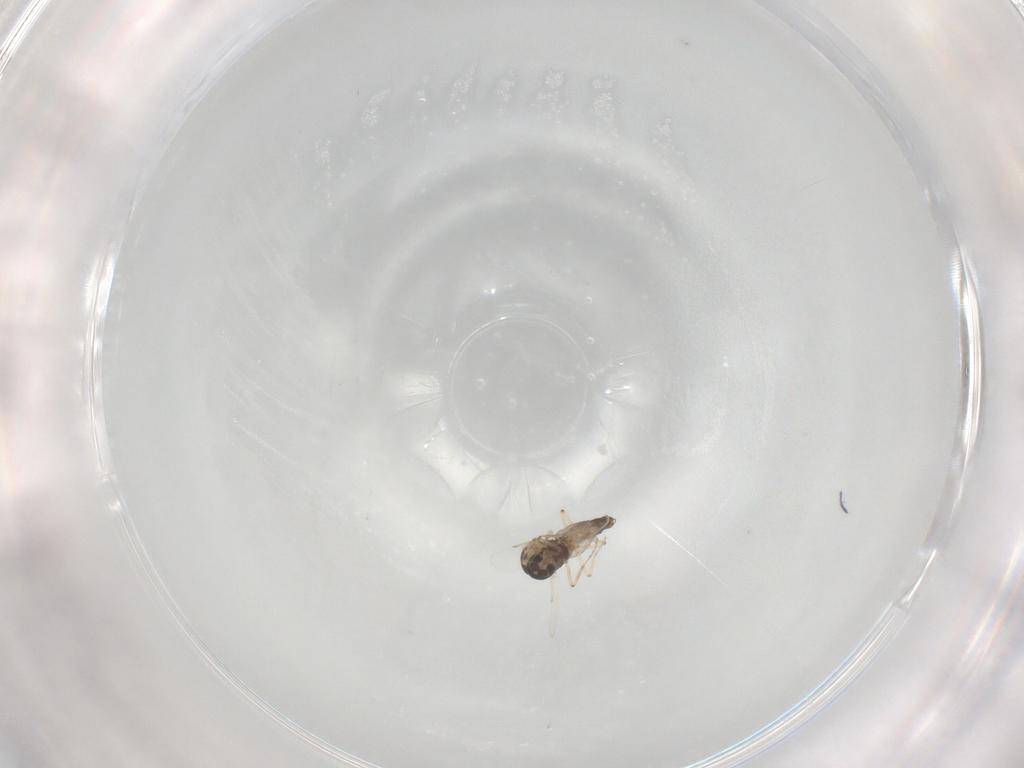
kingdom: Animalia
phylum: Arthropoda
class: Insecta
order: Diptera
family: Cecidomyiidae
